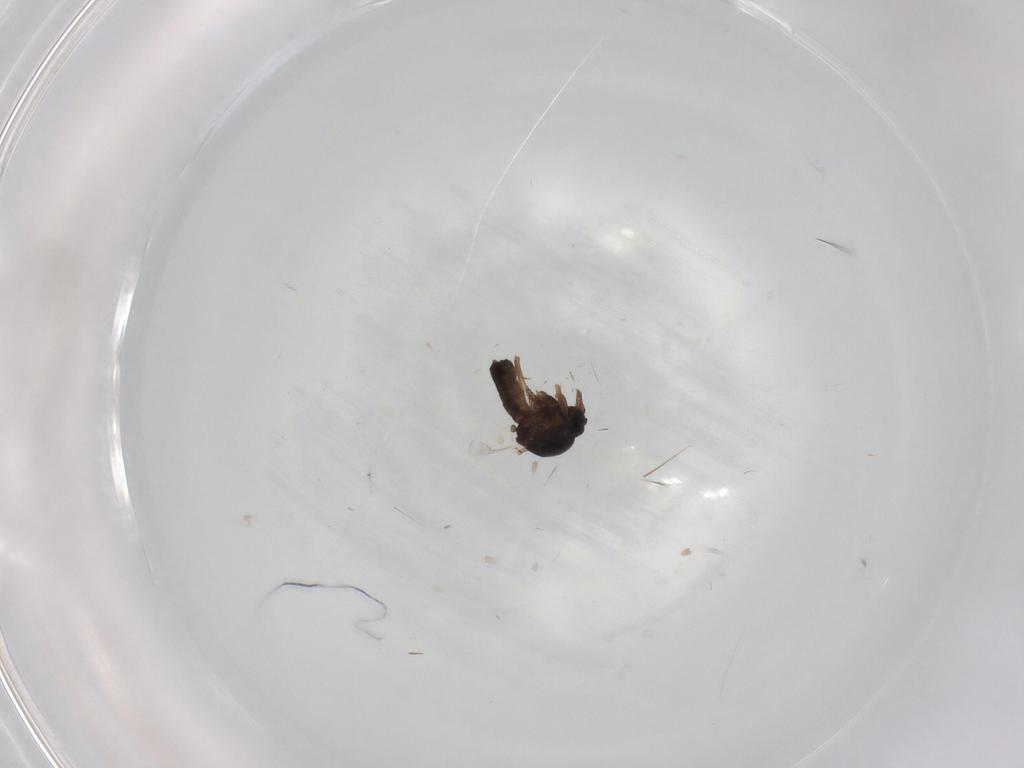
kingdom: Animalia
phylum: Arthropoda
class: Insecta
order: Diptera
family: Ceratopogonidae
